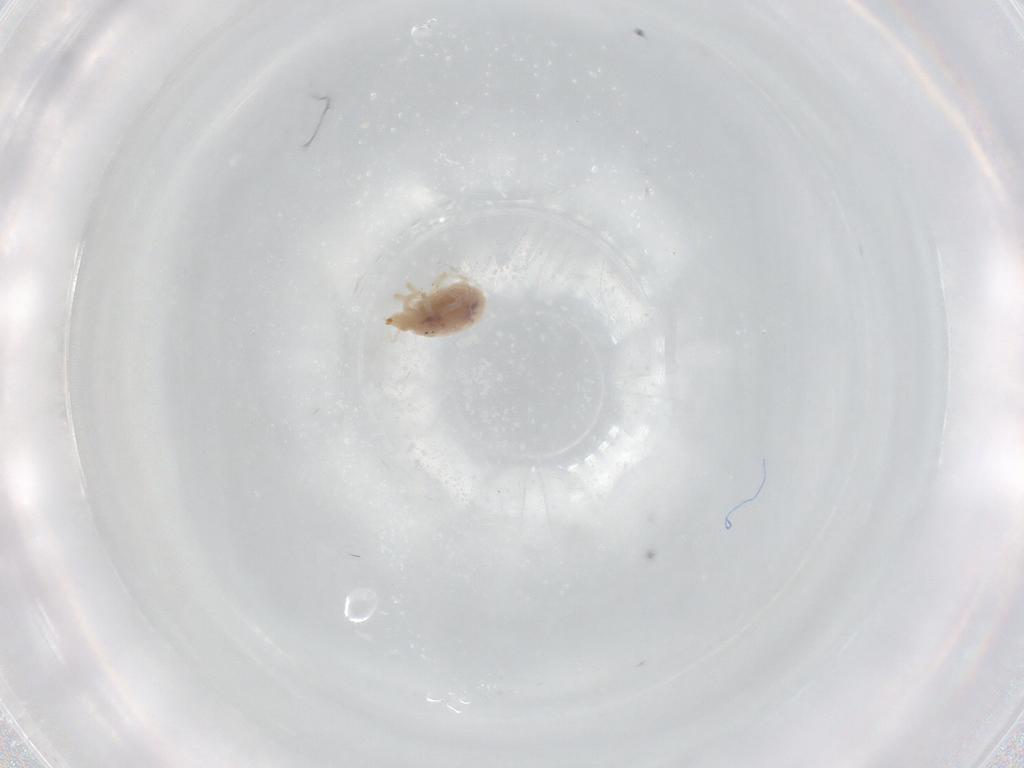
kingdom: Animalia
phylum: Arthropoda
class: Arachnida
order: Trombidiformes
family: Bdellidae
